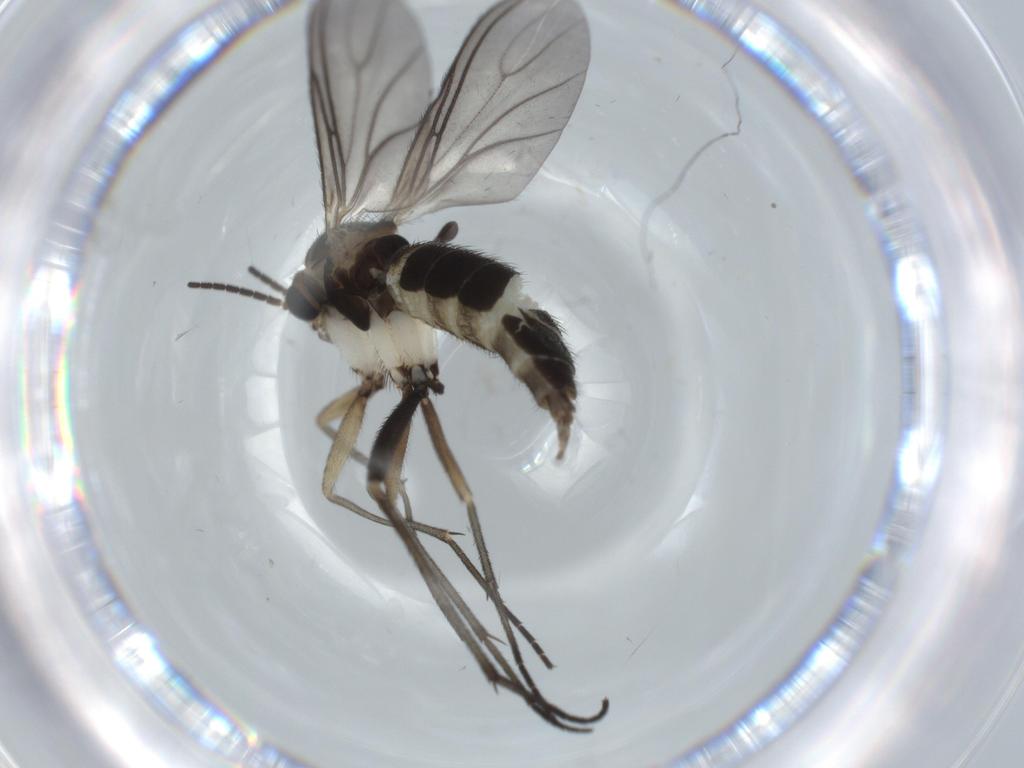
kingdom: Animalia
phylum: Arthropoda
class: Insecta
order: Diptera
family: Sciaridae
